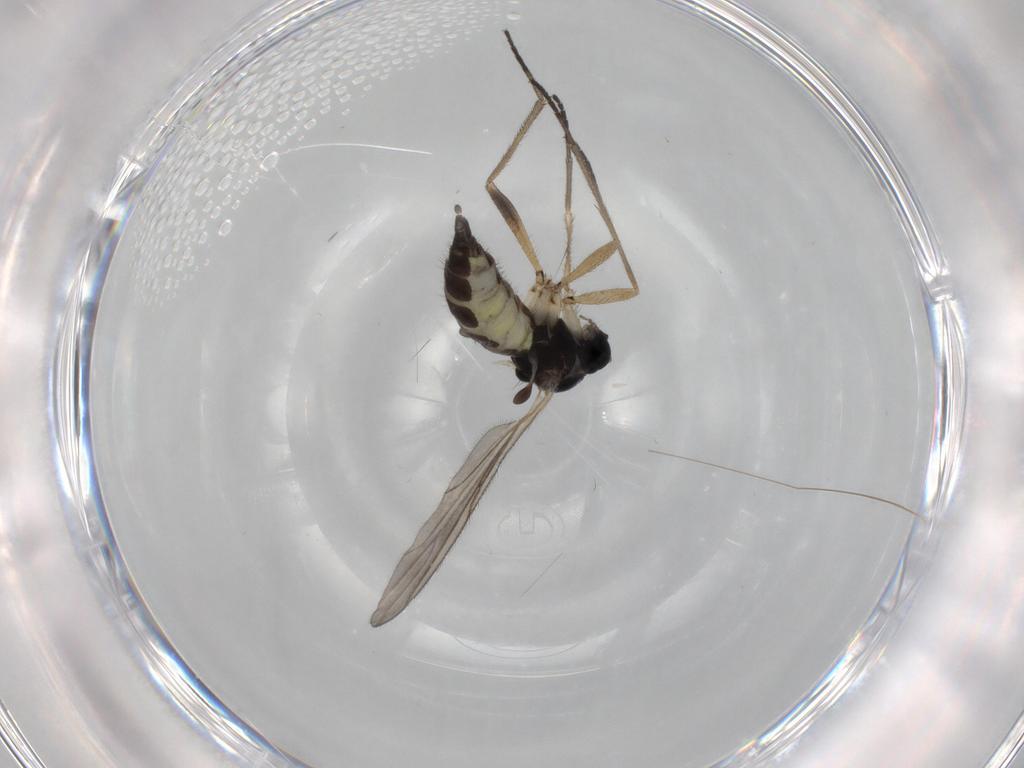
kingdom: Animalia
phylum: Arthropoda
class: Insecta
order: Diptera
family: Sciaridae
